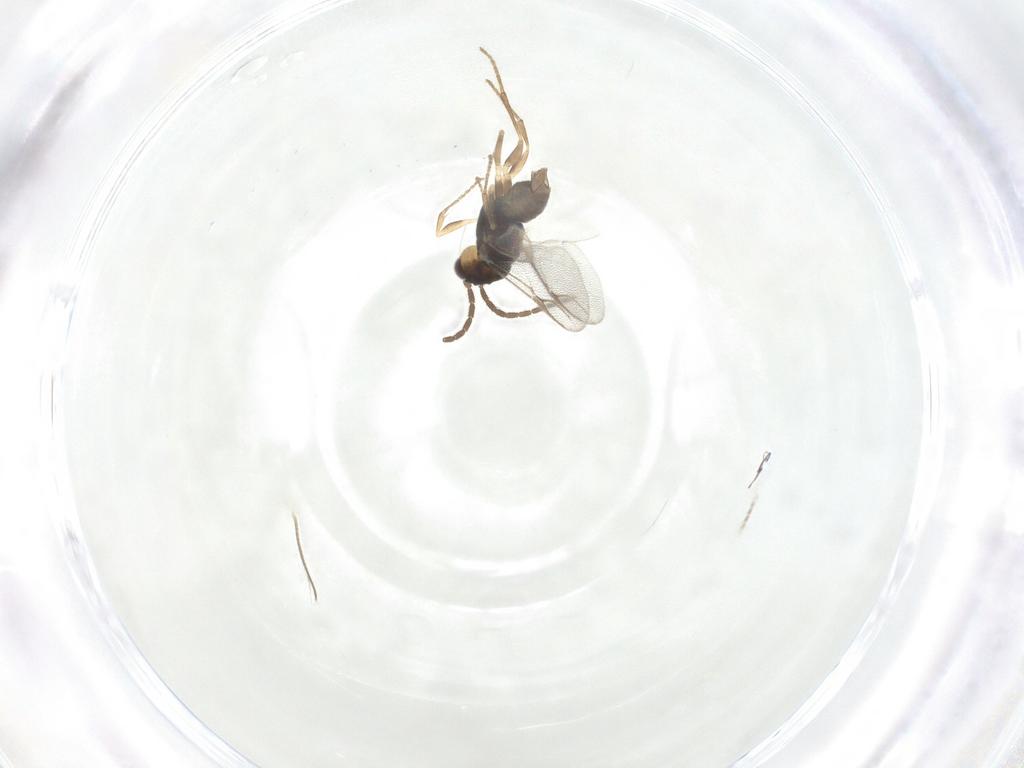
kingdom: Animalia
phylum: Arthropoda
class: Insecta
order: Hymenoptera
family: Dryinidae
